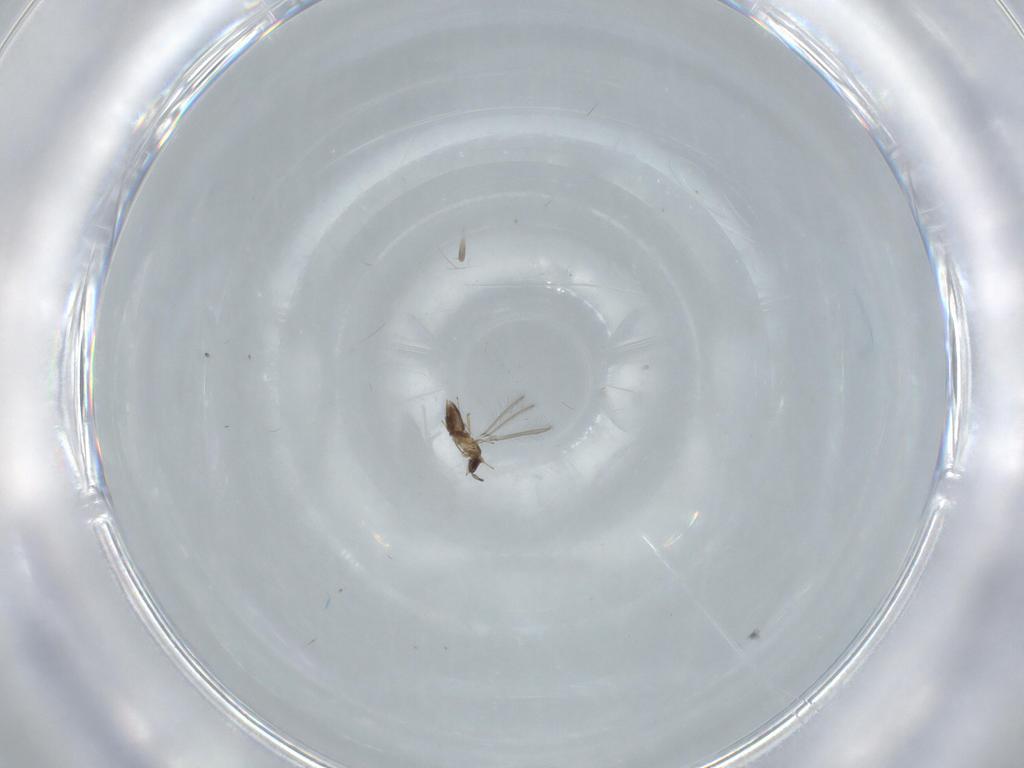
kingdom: Animalia
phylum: Arthropoda
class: Insecta
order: Hymenoptera
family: Mymaridae
